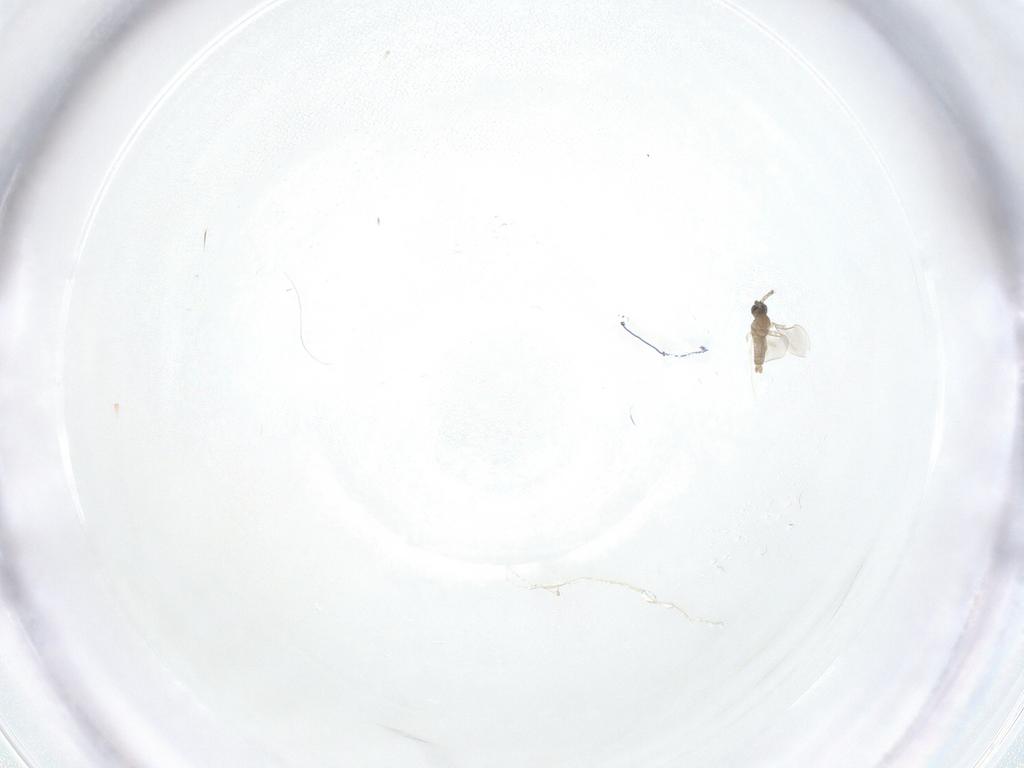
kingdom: Animalia
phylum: Arthropoda
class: Insecta
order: Diptera
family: Cecidomyiidae
